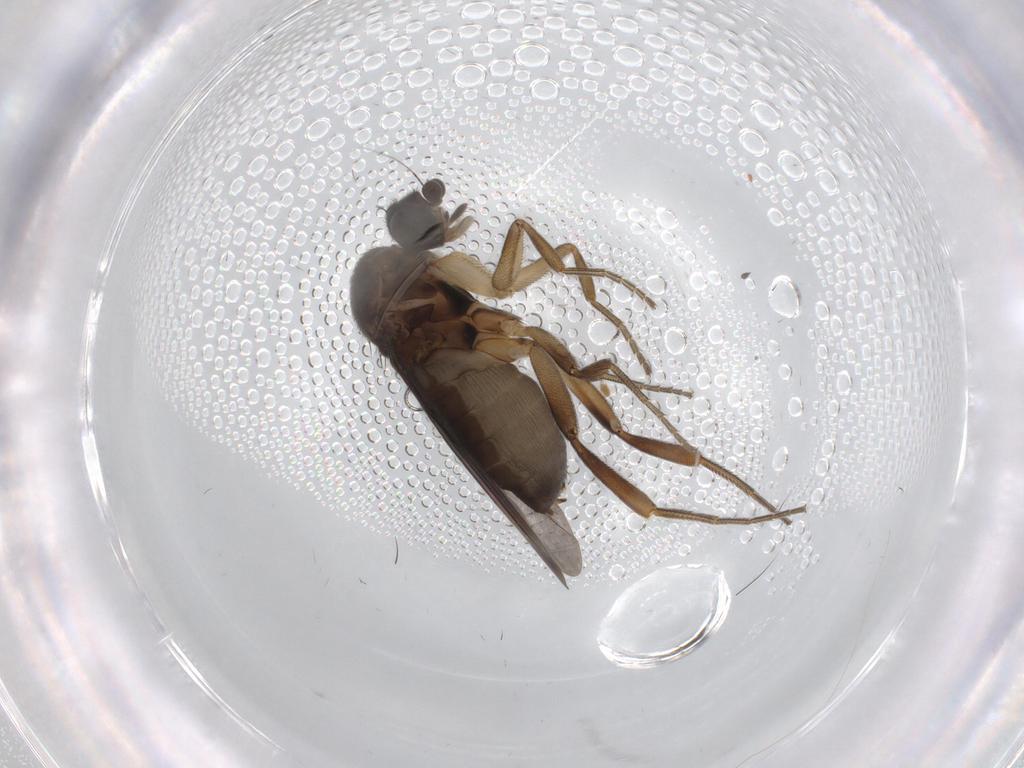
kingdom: Animalia
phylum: Arthropoda
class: Insecta
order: Diptera
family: Phoridae
